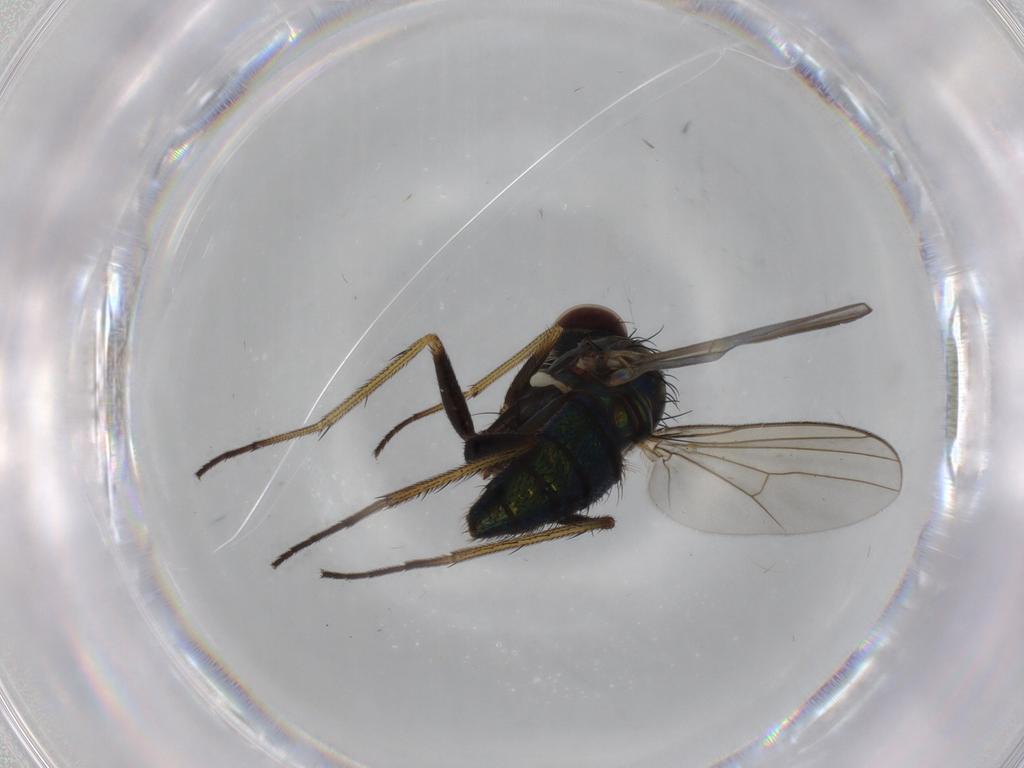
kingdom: Animalia
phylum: Arthropoda
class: Insecta
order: Diptera
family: Dolichopodidae
